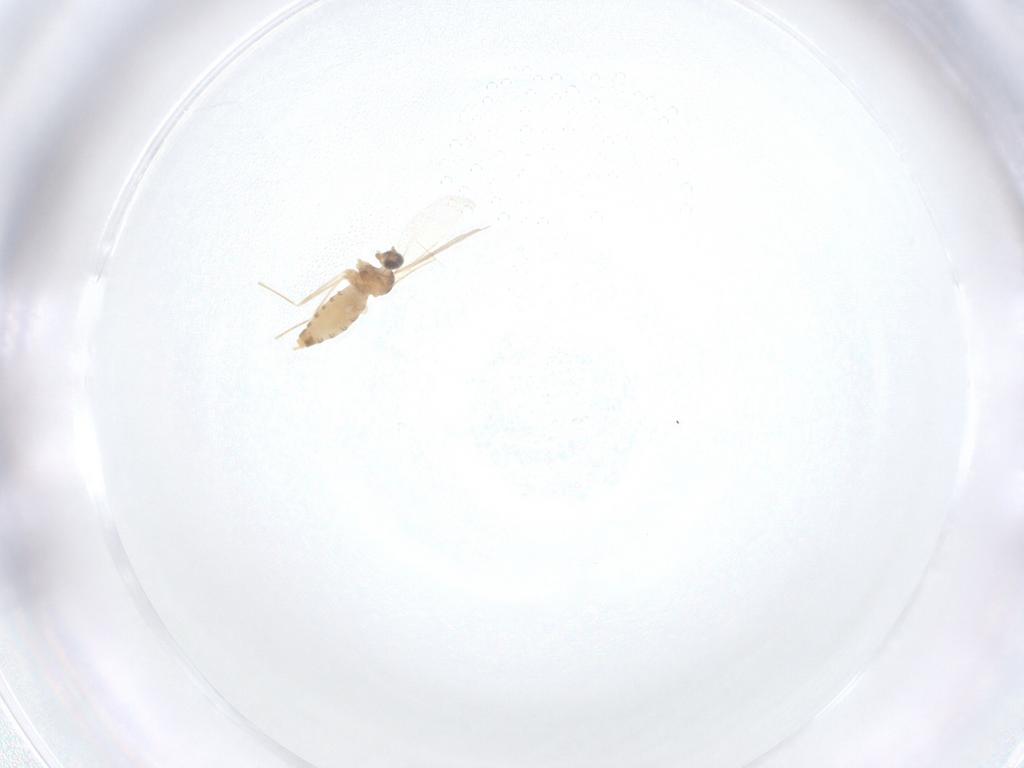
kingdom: Animalia
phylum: Arthropoda
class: Insecta
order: Diptera
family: Cecidomyiidae
